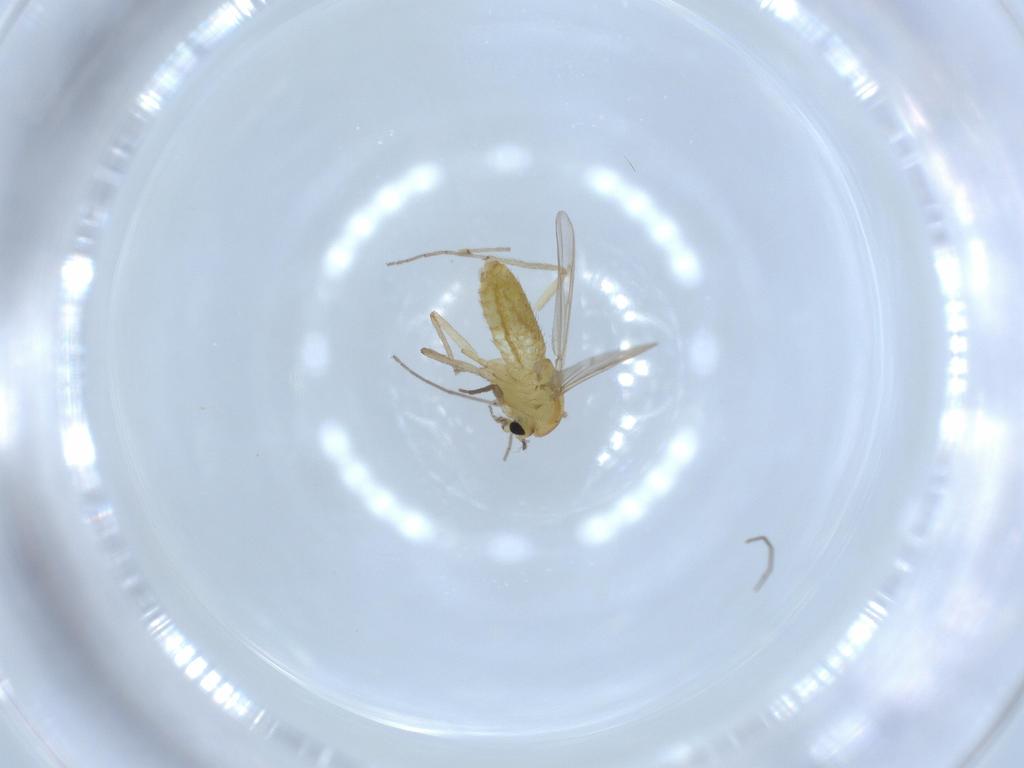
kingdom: Animalia
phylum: Arthropoda
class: Insecta
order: Diptera
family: Chironomidae
